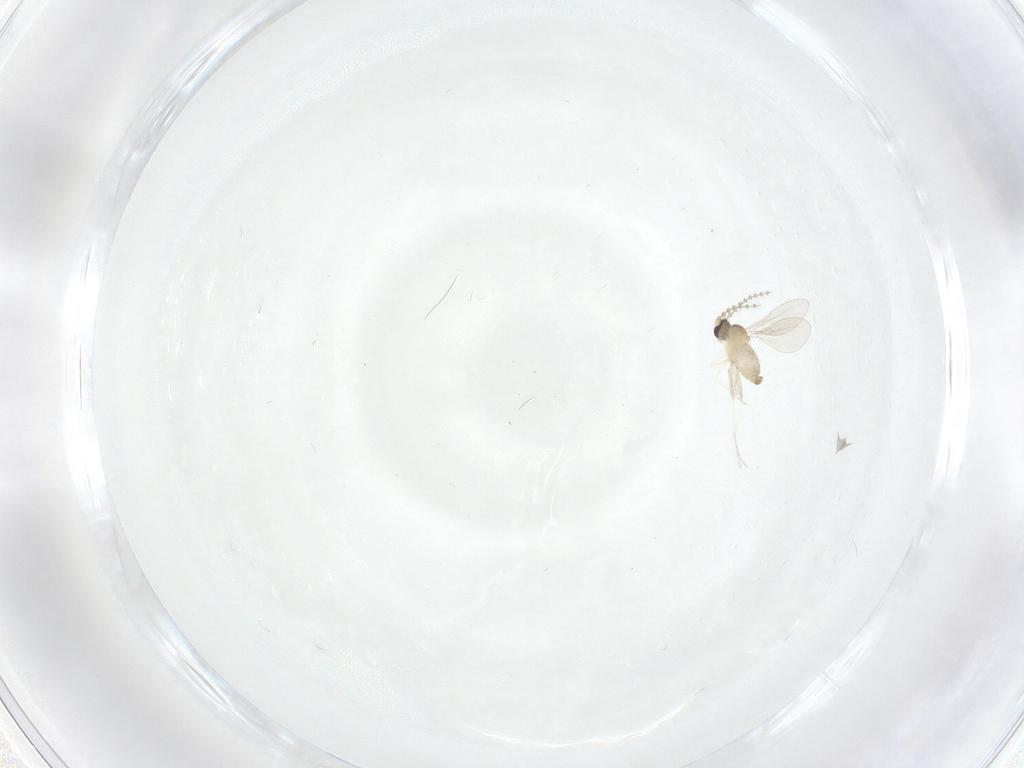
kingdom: Animalia
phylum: Arthropoda
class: Insecta
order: Diptera
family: Cecidomyiidae
